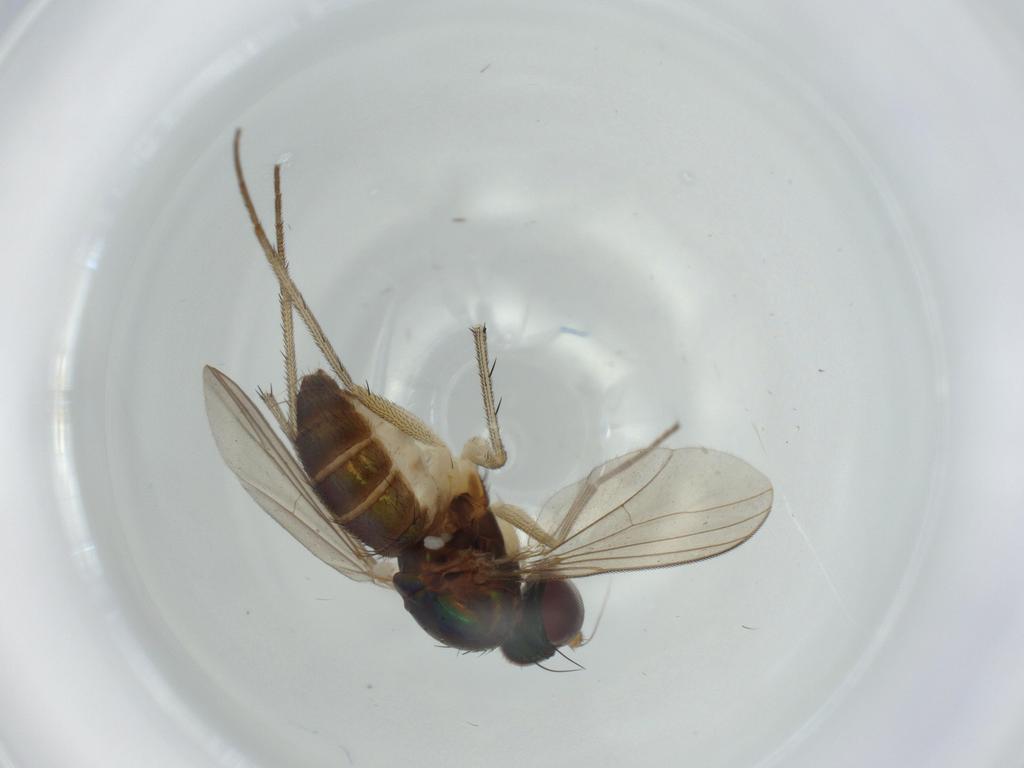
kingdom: Animalia
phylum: Arthropoda
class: Insecta
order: Diptera
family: Dolichopodidae
